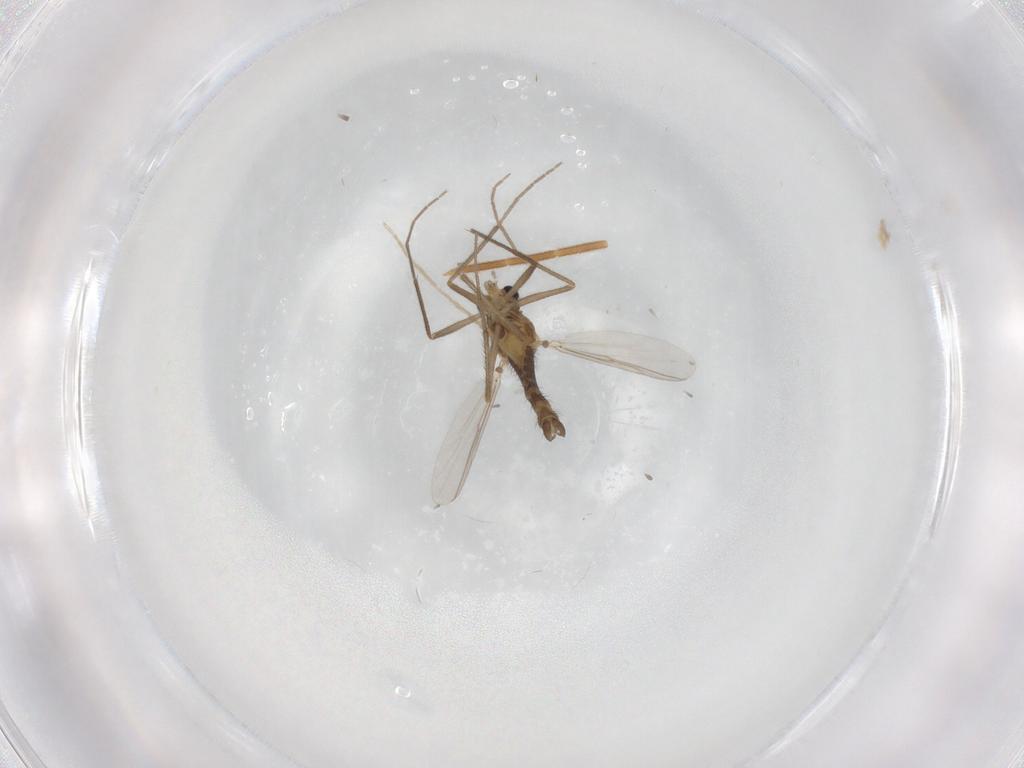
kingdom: Animalia
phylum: Arthropoda
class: Insecta
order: Diptera
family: Chironomidae
